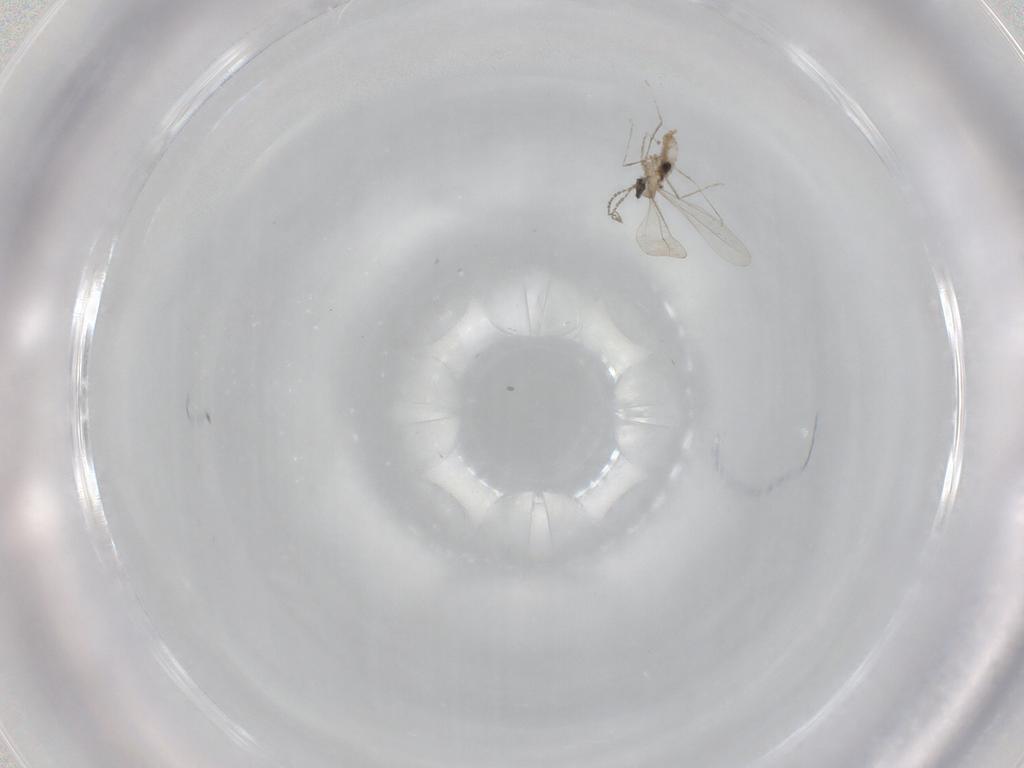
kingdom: Animalia
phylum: Arthropoda
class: Insecta
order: Diptera
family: Cecidomyiidae
